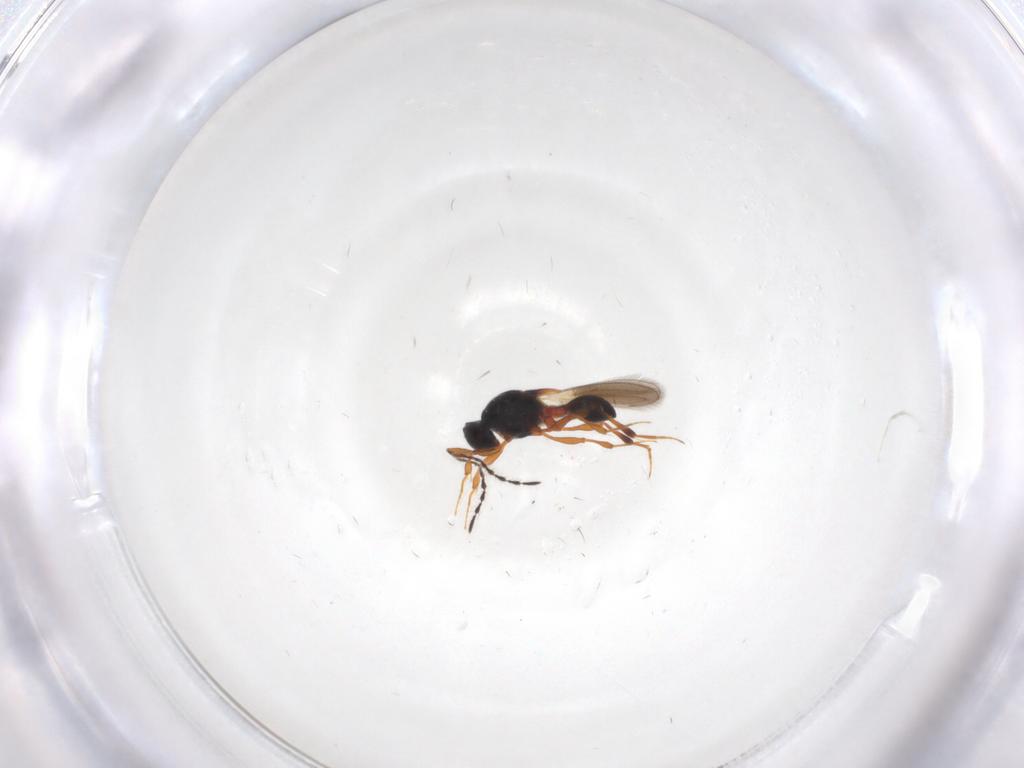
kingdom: Animalia
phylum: Arthropoda
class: Insecta
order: Hymenoptera
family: Platygastridae
